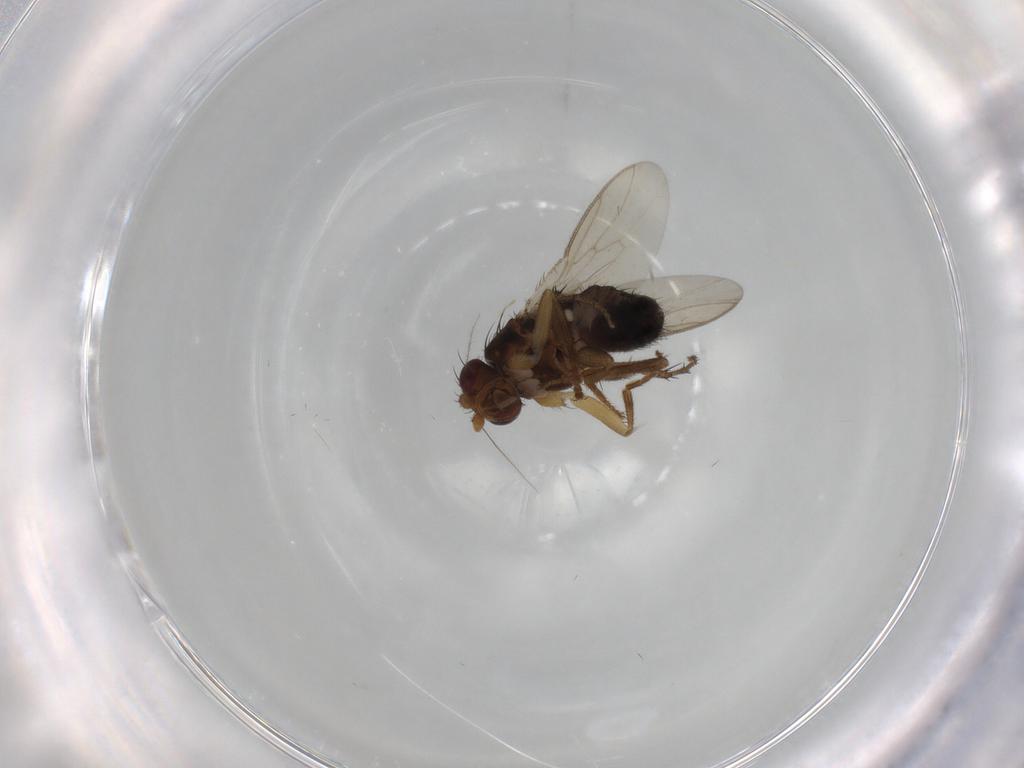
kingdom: Animalia
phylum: Arthropoda
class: Insecta
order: Diptera
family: Sphaeroceridae
